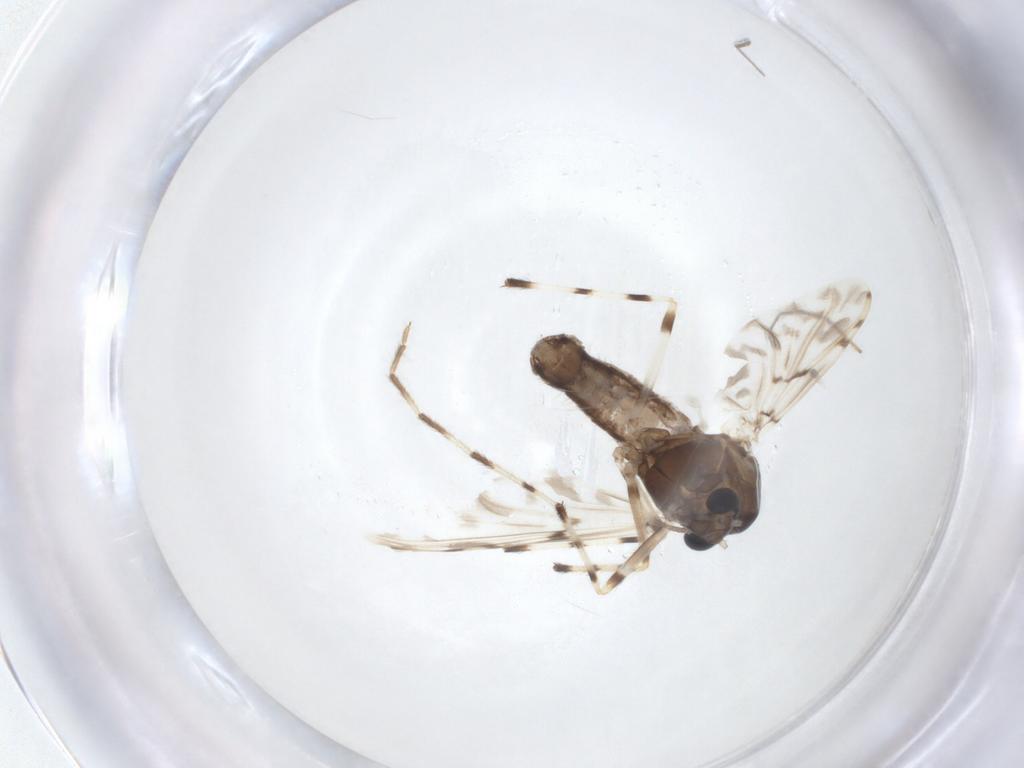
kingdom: Animalia
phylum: Arthropoda
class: Insecta
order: Diptera
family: Chironomidae
